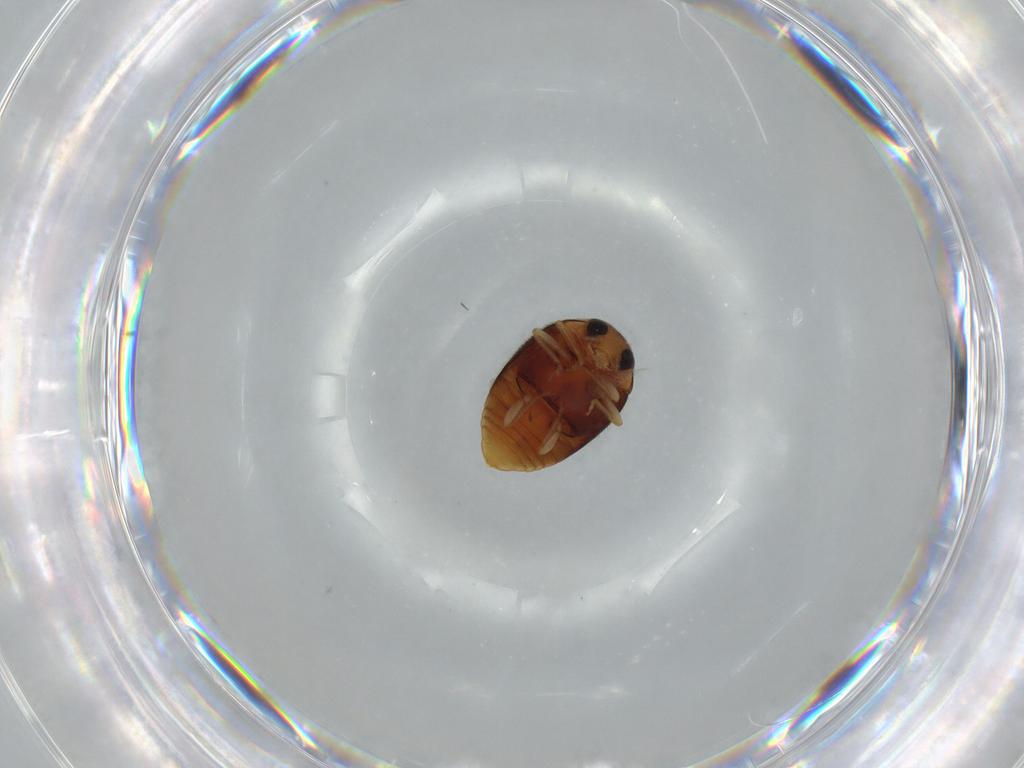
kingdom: Animalia
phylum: Arthropoda
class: Insecta
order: Coleoptera
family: Coccinellidae
